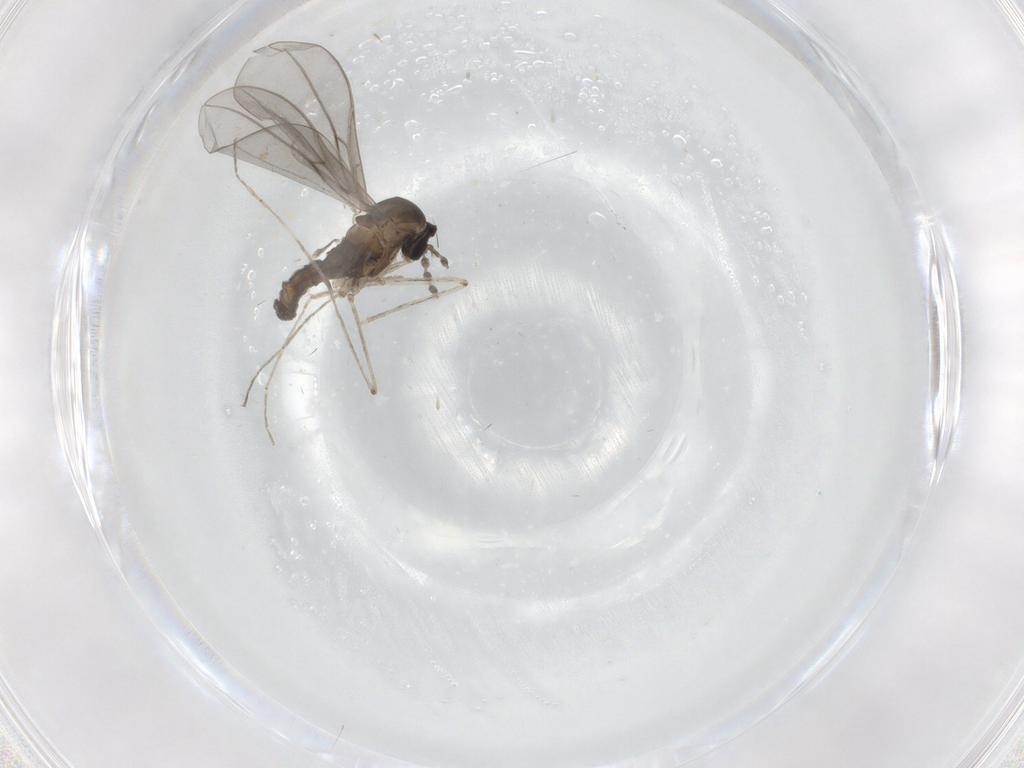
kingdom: Animalia
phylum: Arthropoda
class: Insecta
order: Diptera
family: Cecidomyiidae
